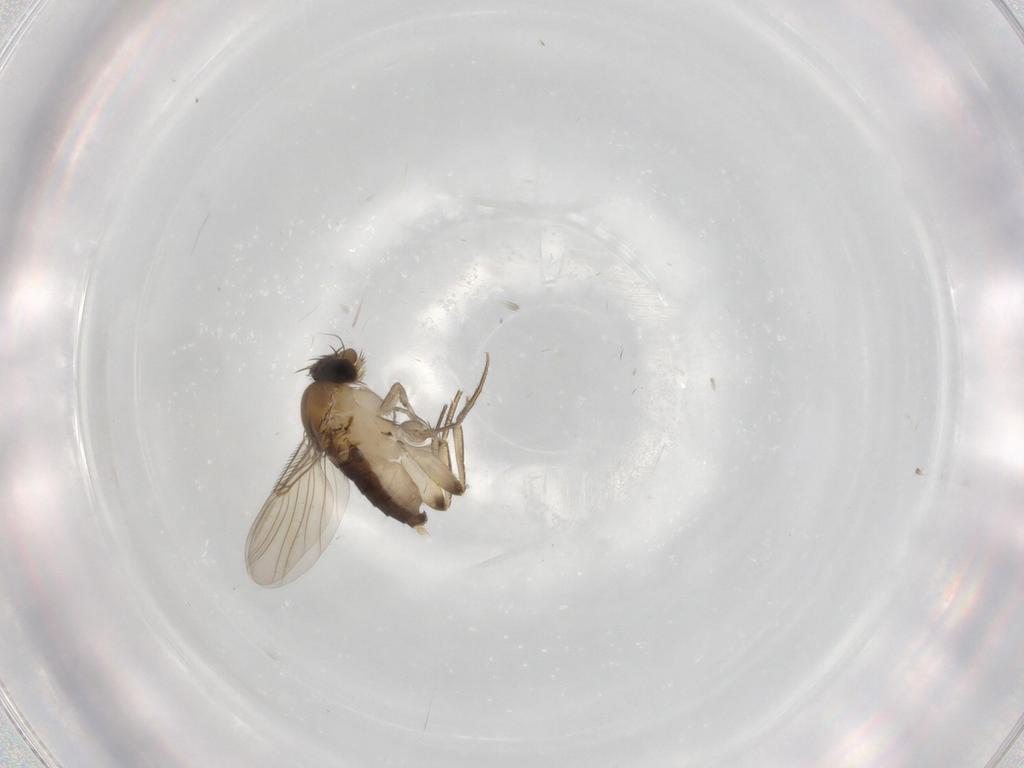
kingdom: Animalia
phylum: Arthropoda
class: Insecta
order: Diptera
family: Phoridae
